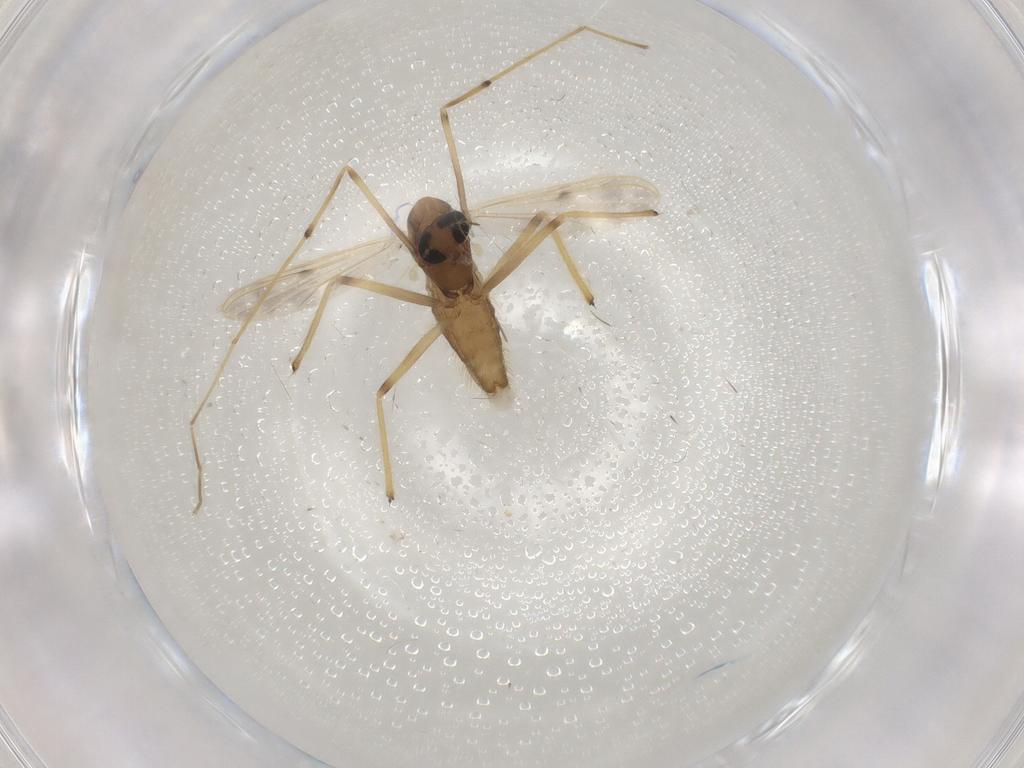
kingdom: Animalia
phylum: Arthropoda
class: Insecta
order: Diptera
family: Chironomidae
